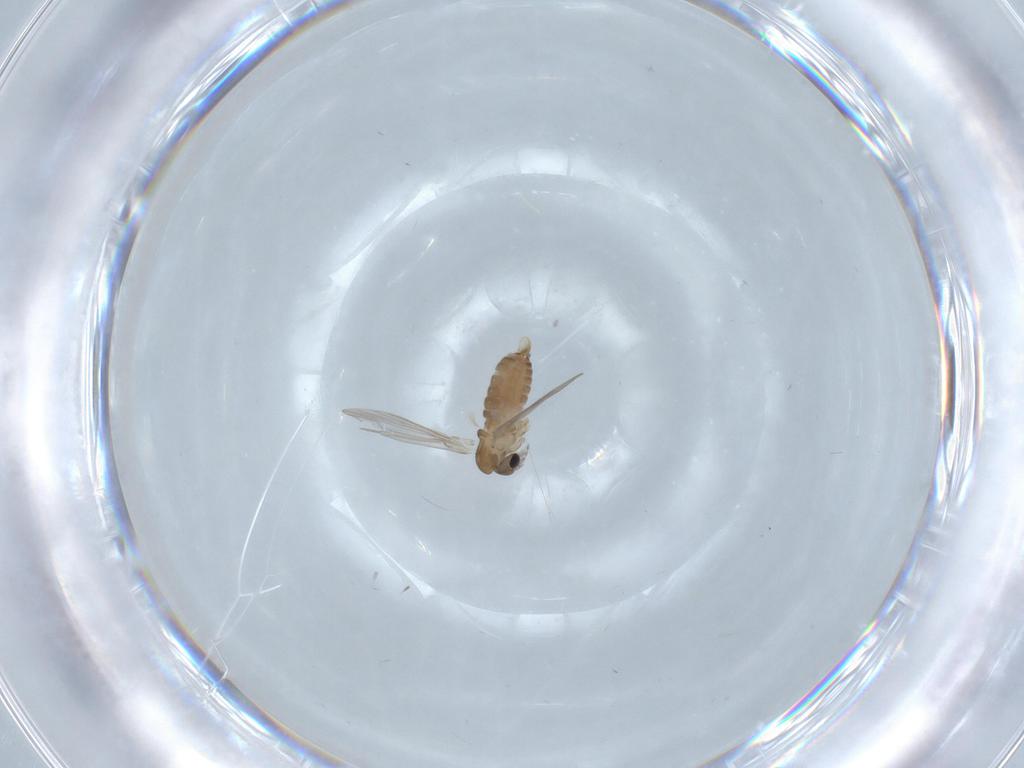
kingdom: Animalia
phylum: Arthropoda
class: Insecta
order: Diptera
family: Psychodidae
